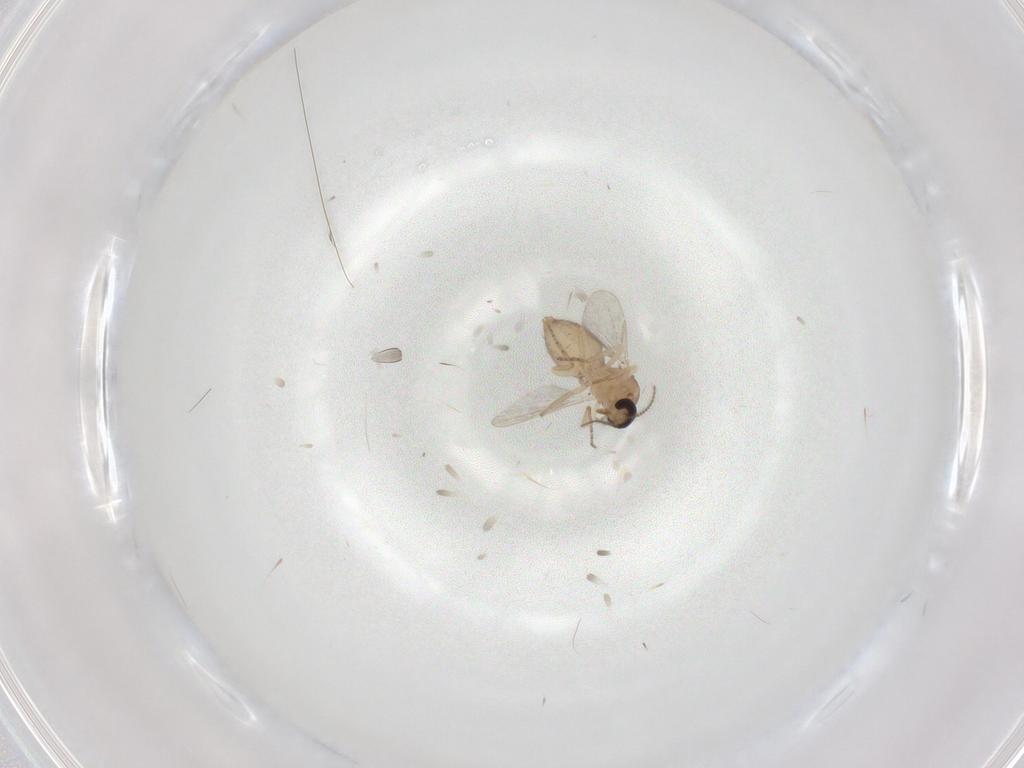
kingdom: Animalia
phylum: Arthropoda
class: Insecta
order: Diptera
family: Ceratopogonidae
